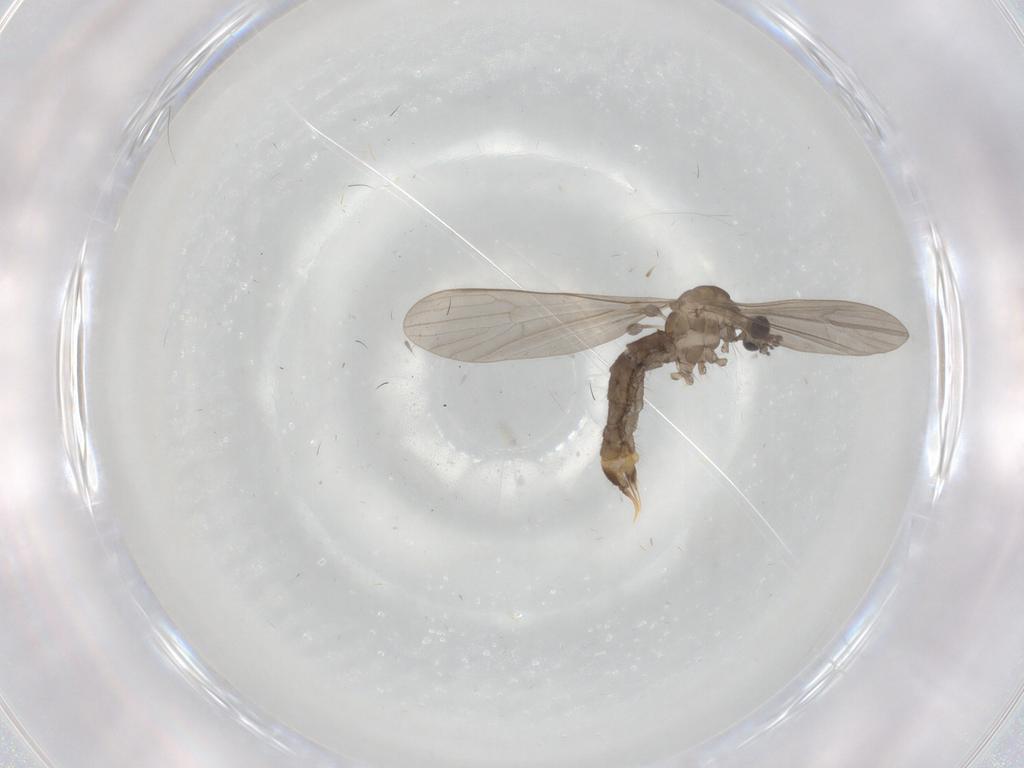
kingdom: Animalia
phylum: Arthropoda
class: Insecta
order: Diptera
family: Limoniidae
